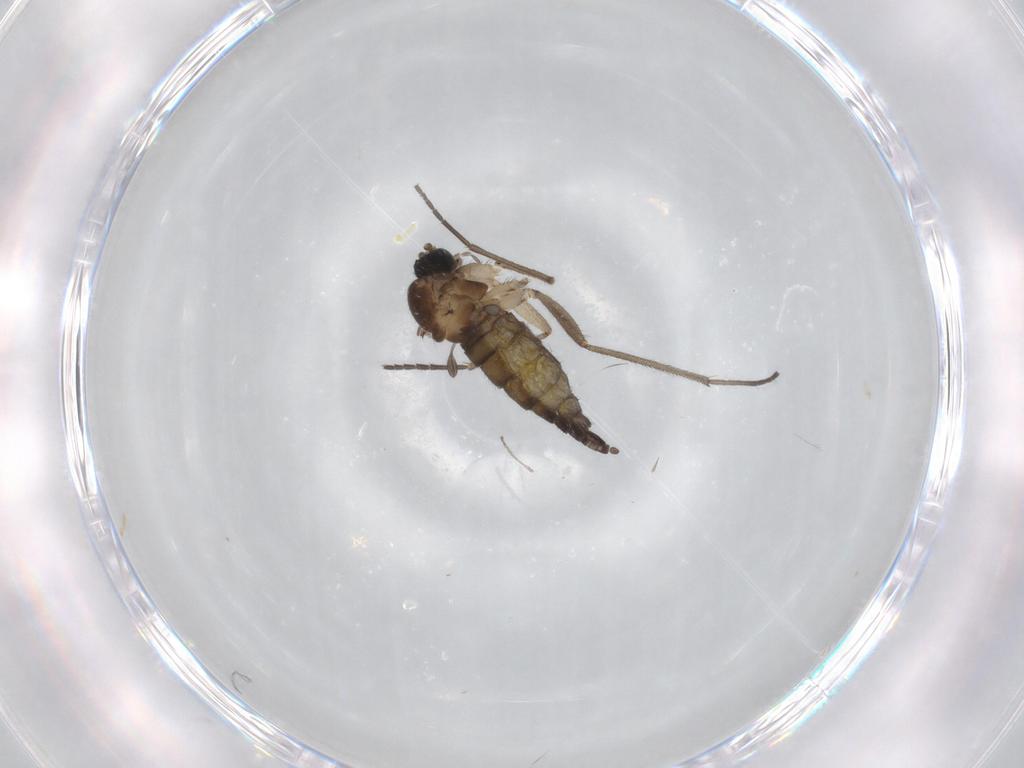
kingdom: Animalia
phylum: Arthropoda
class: Insecta
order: Diptera
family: Sciaridae
